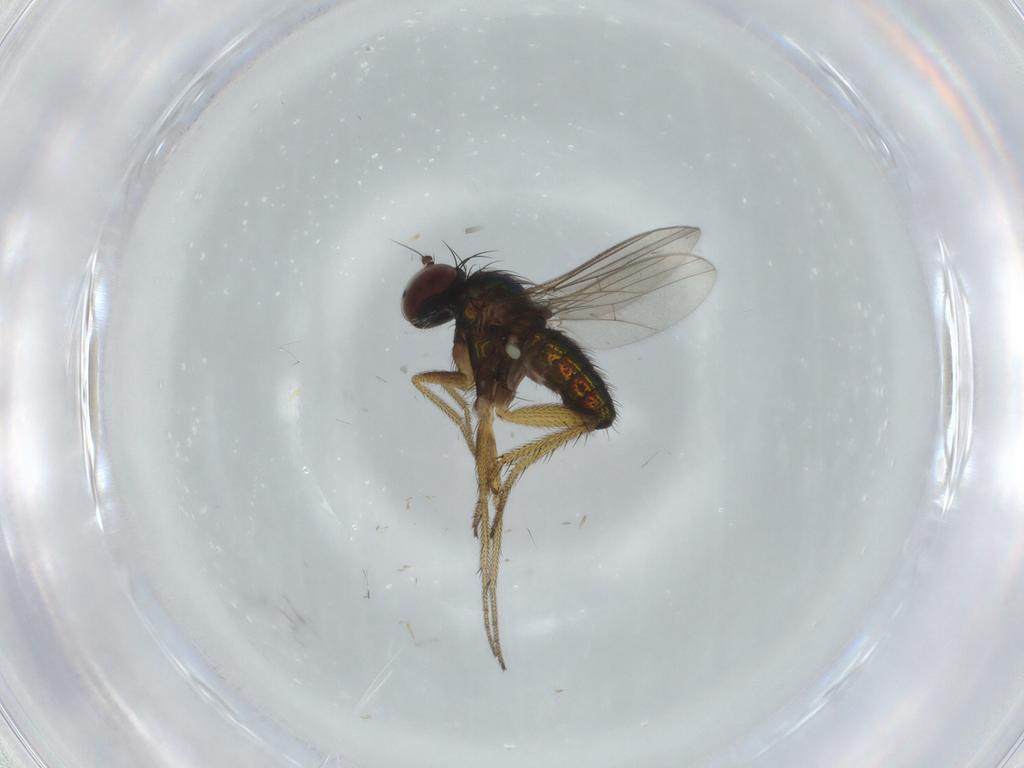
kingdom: Animalia
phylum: Arthropoda
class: Insecta
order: Diptera
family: Dolichopodidae
